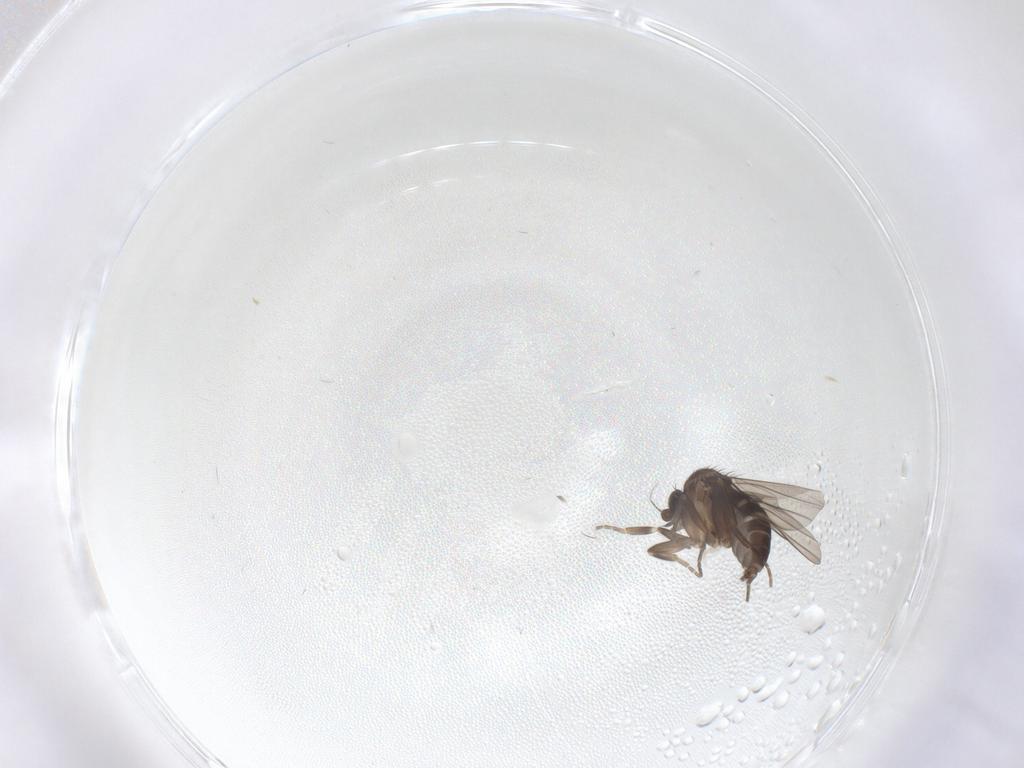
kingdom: Animalia
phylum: Arthropoda
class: Insecta
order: Diptera
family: Phoridae
